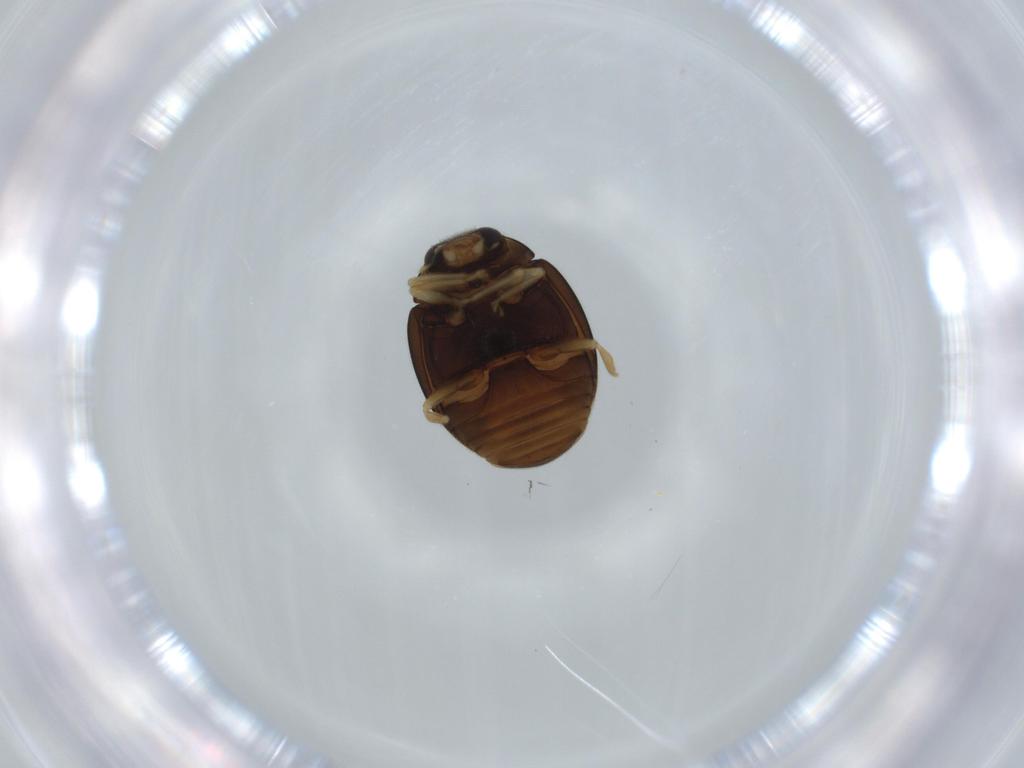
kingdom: Animalia
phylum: Arthropoda
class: Insecta
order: Coleoptera
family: Coccinellidae
